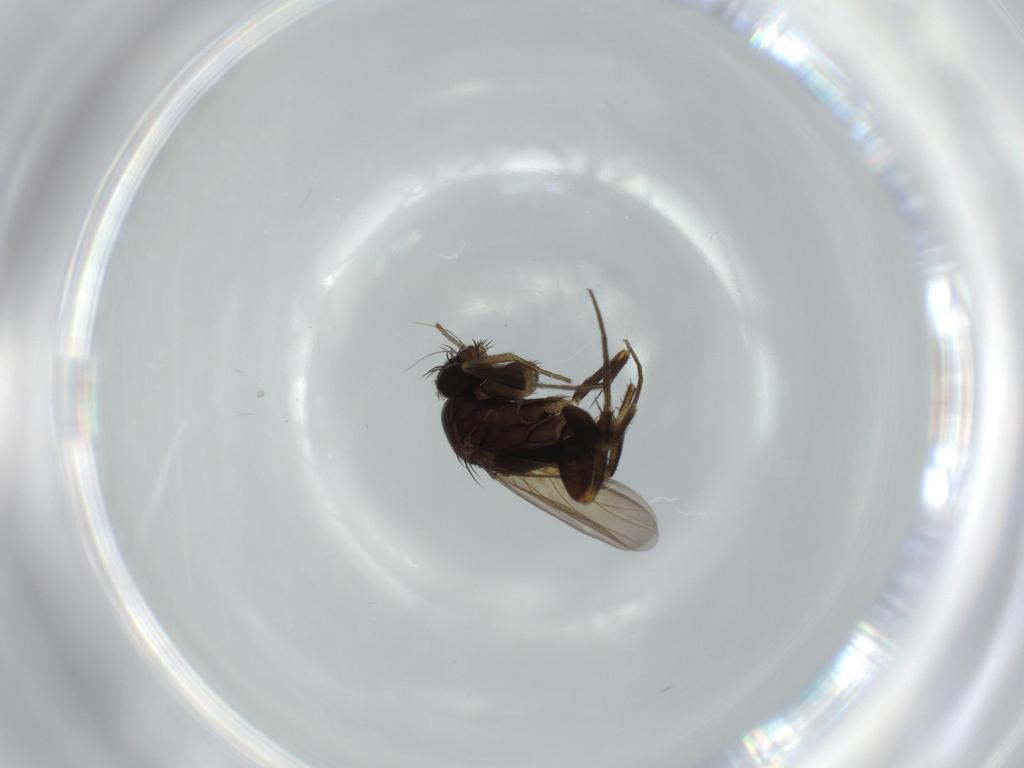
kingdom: Animalia
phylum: Arthropoda
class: Insecta
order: Diptera
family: Phoridae
